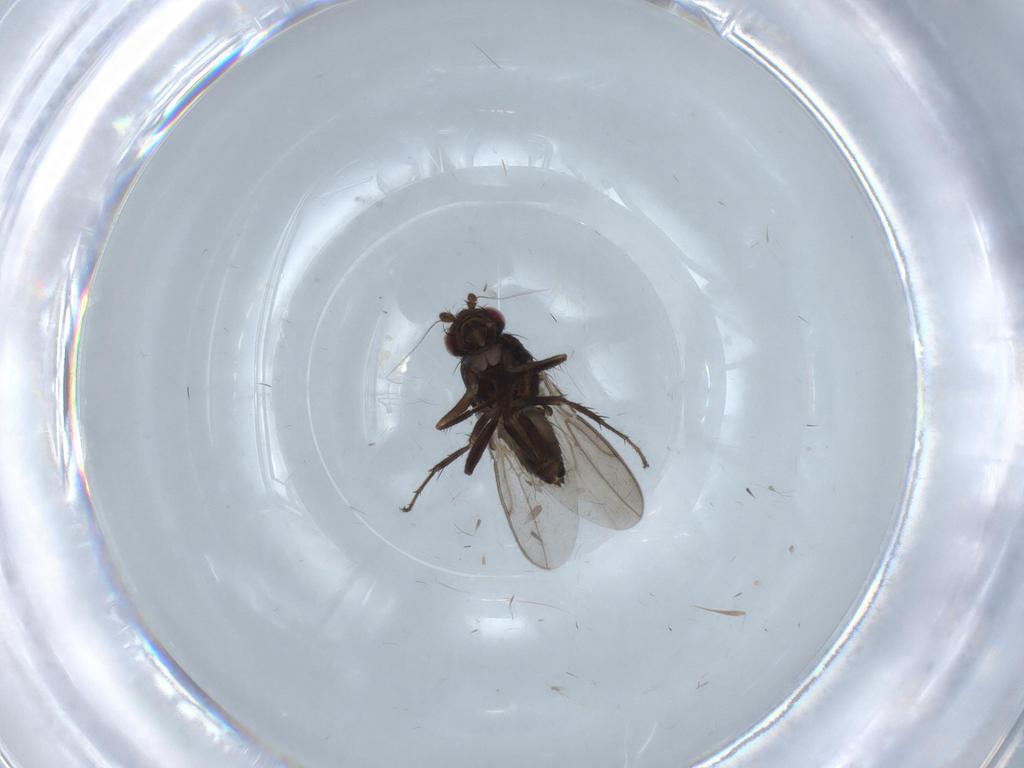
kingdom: Animalia
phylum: Arthropoda
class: Insecta
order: Diptera
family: Sphaeroceridae
